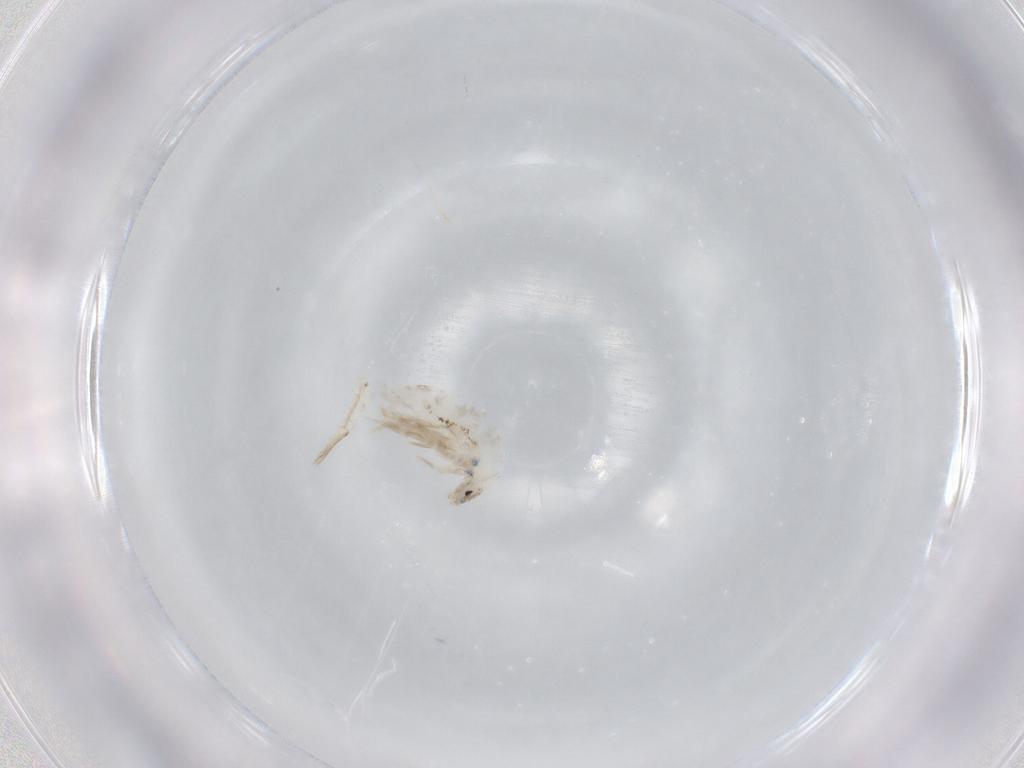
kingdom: Animalia
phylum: Arthropoda
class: Collembola
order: Entomobryomorpha
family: Entomobryidae
